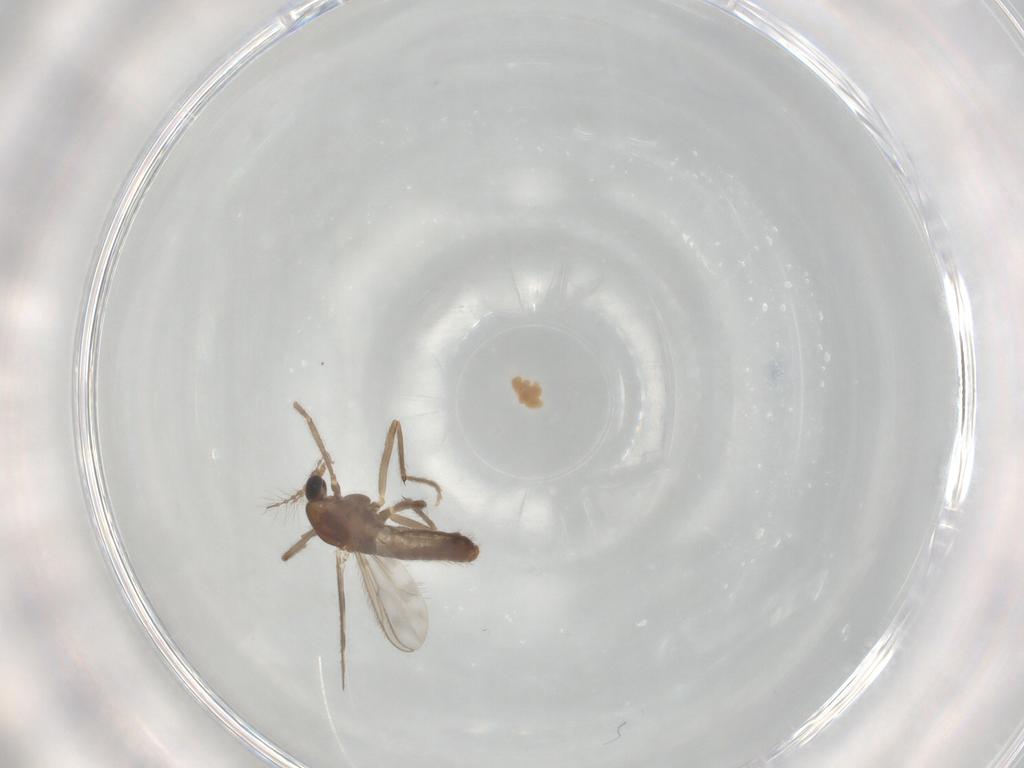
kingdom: Animalia
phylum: Arthropoda
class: Insecta
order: Diptera
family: Chironomidae
